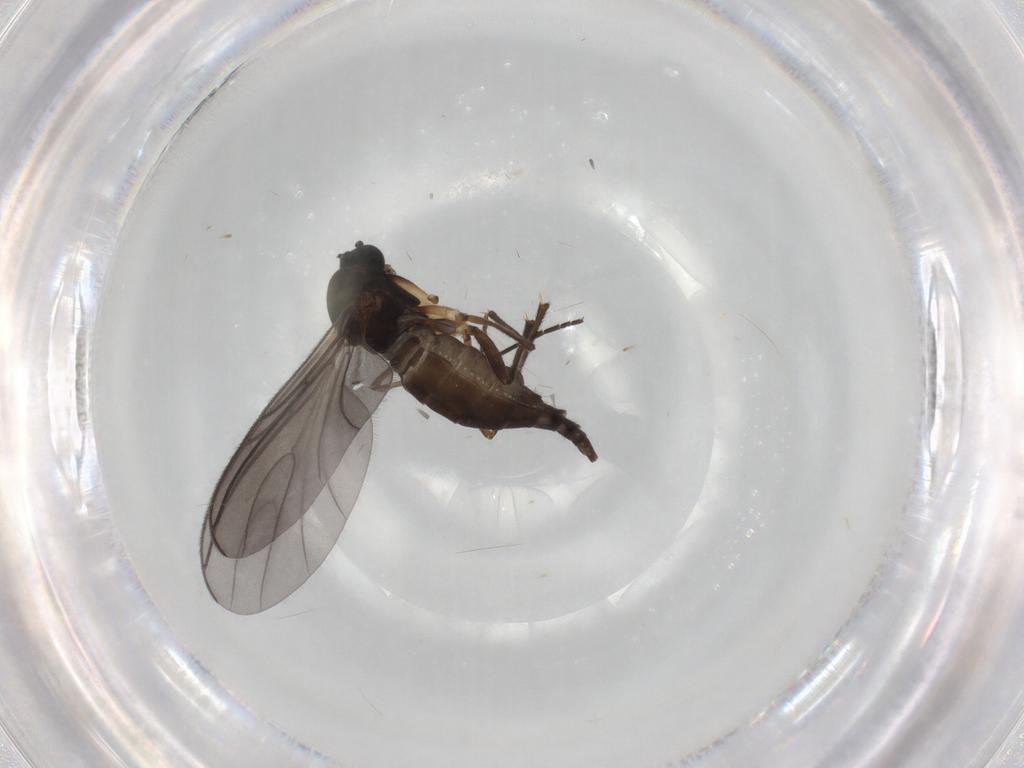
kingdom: Animalia
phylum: Arthropoda
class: Insecta
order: Diptera
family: Sciaridae
